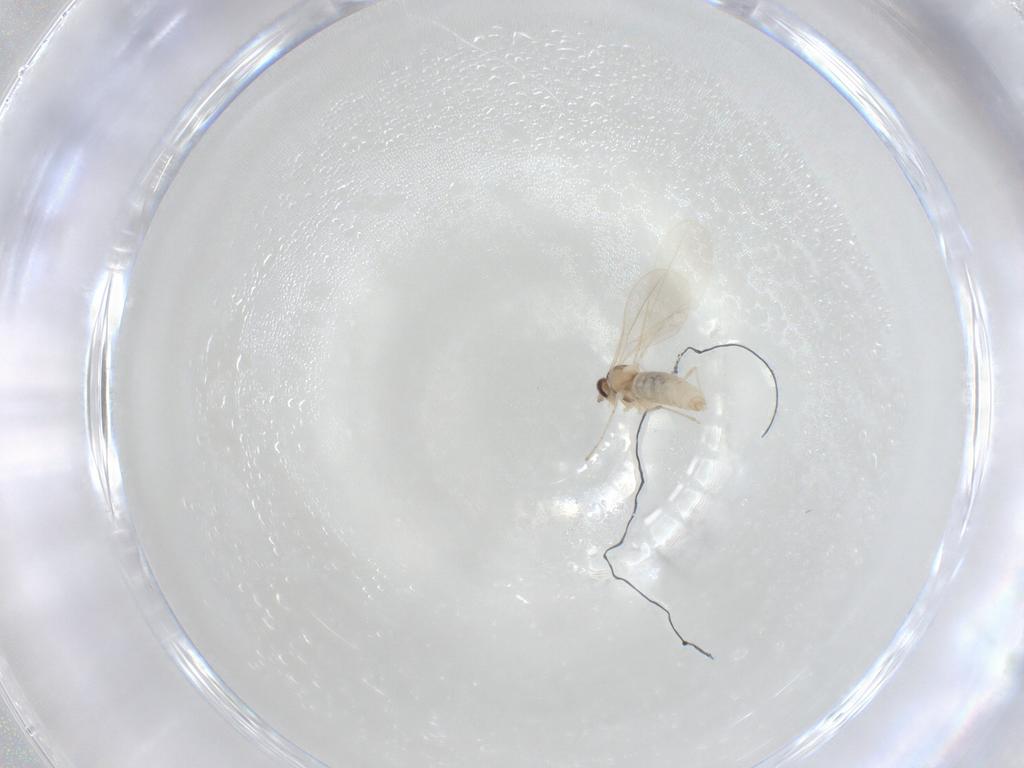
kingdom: Animalia
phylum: Arthropoda
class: Insecta
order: Diptera
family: Cecidomyiidae
